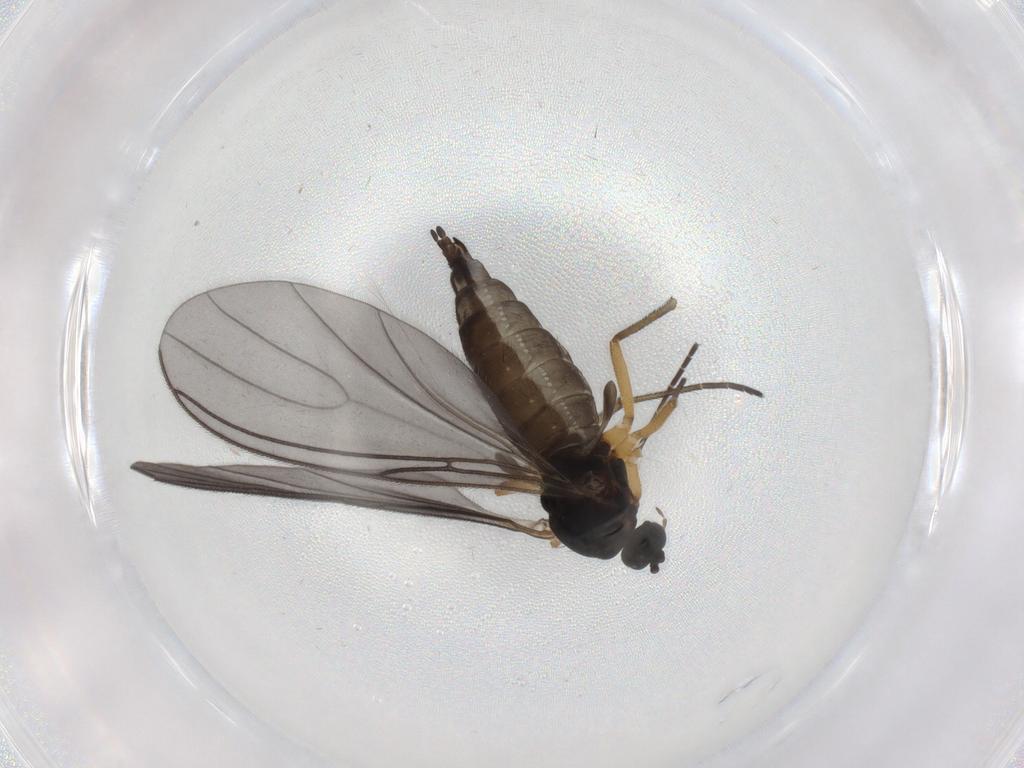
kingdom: Animalia
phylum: Arthropoda
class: Insecta
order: Diptera
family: Sciaridae
